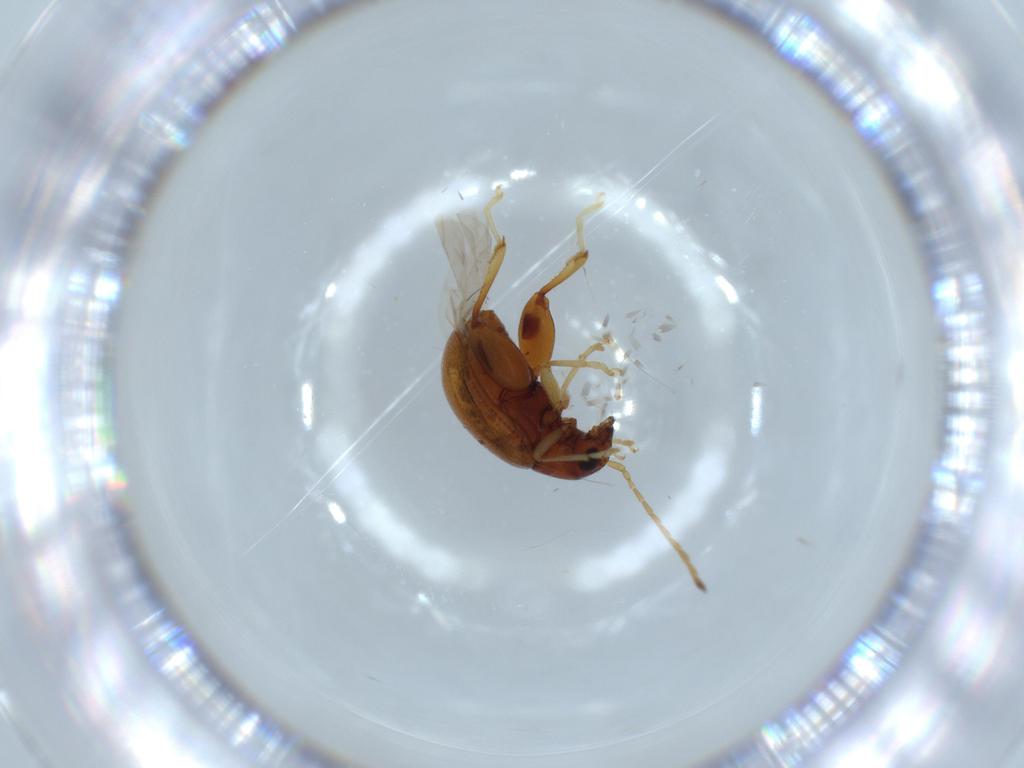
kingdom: Animalia
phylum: Arthropoda
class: Insecta
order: Coleoptera
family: Chrysomelidae
